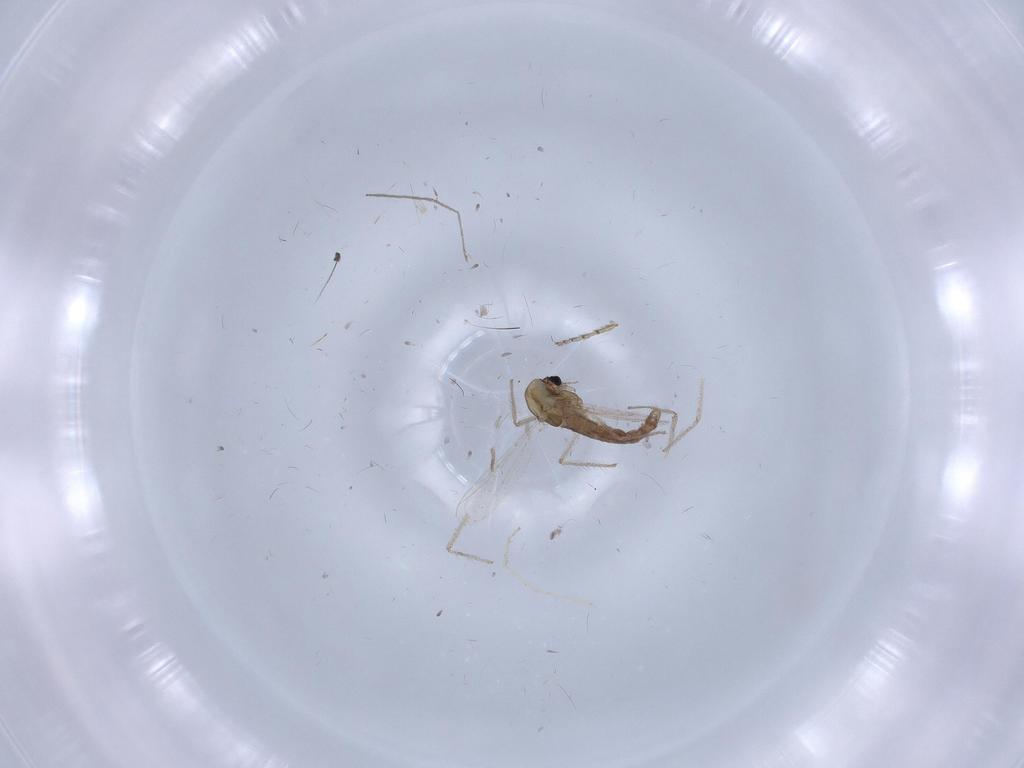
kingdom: Animalia
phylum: Arthropoda
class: Insecta
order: Diptera
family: Chironomidae
